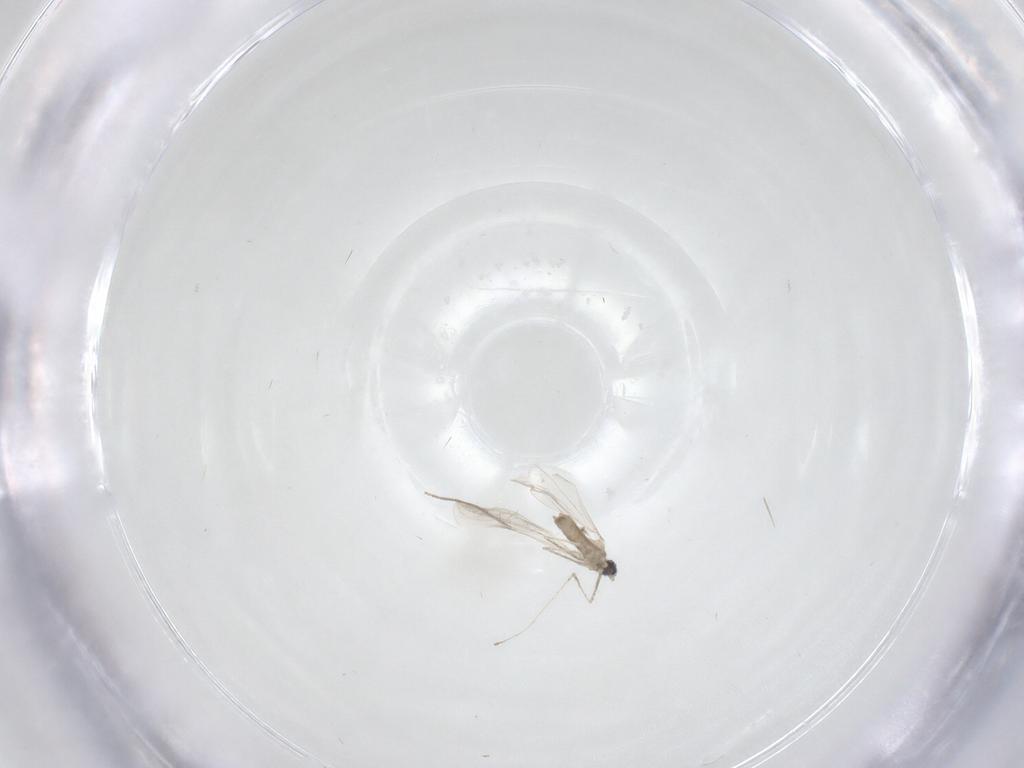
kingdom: Animalia
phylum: Arthropoda
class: Insecta
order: Diptera
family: Cecidomyiidae
